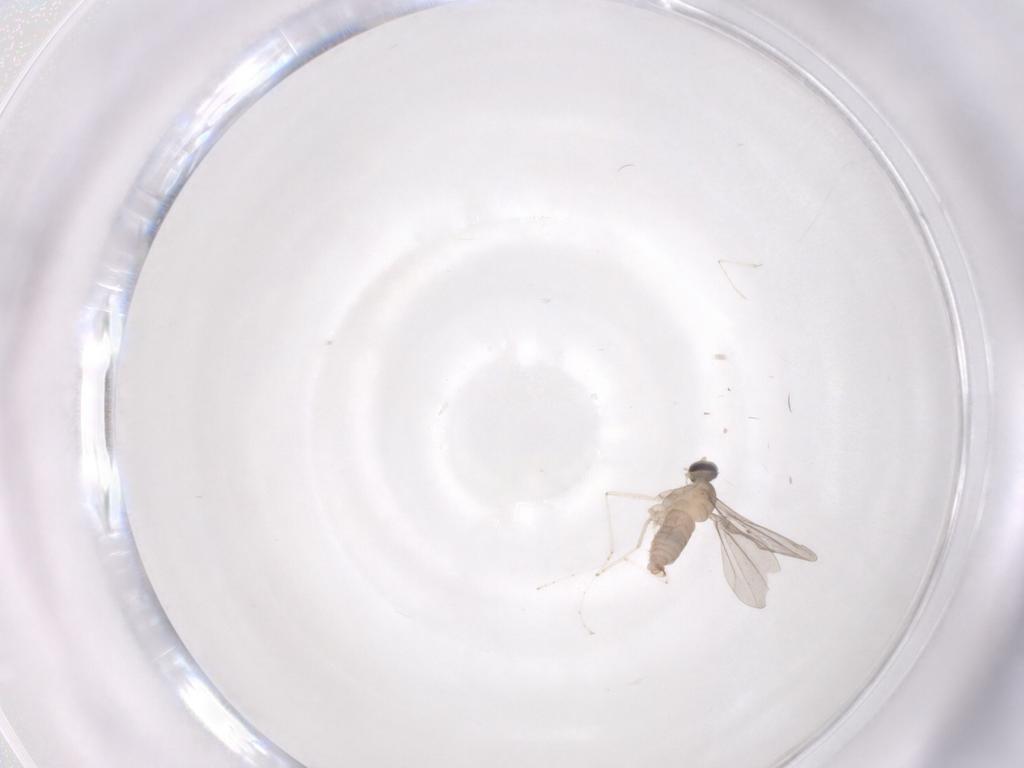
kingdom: Animalia
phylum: Arthropoda
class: Insecta
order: Diptera
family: Cecidomyiidae
